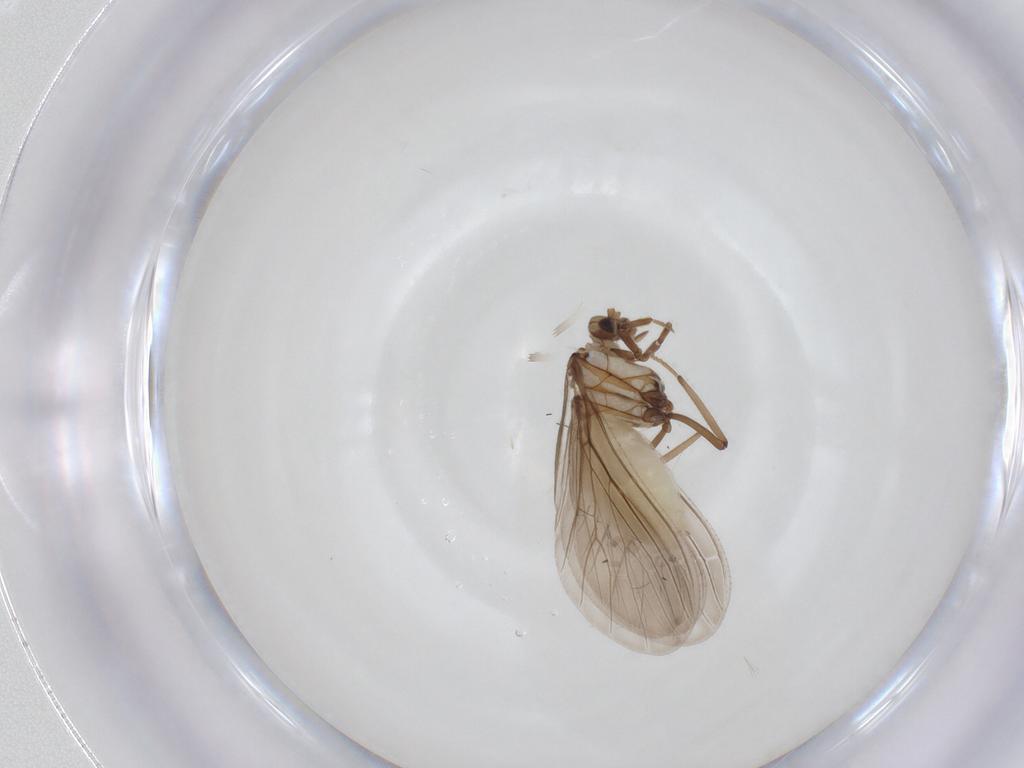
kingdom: Animalia
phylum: Arthropoda
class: Insecta
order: Neuroptera
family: Coniopterygidae
